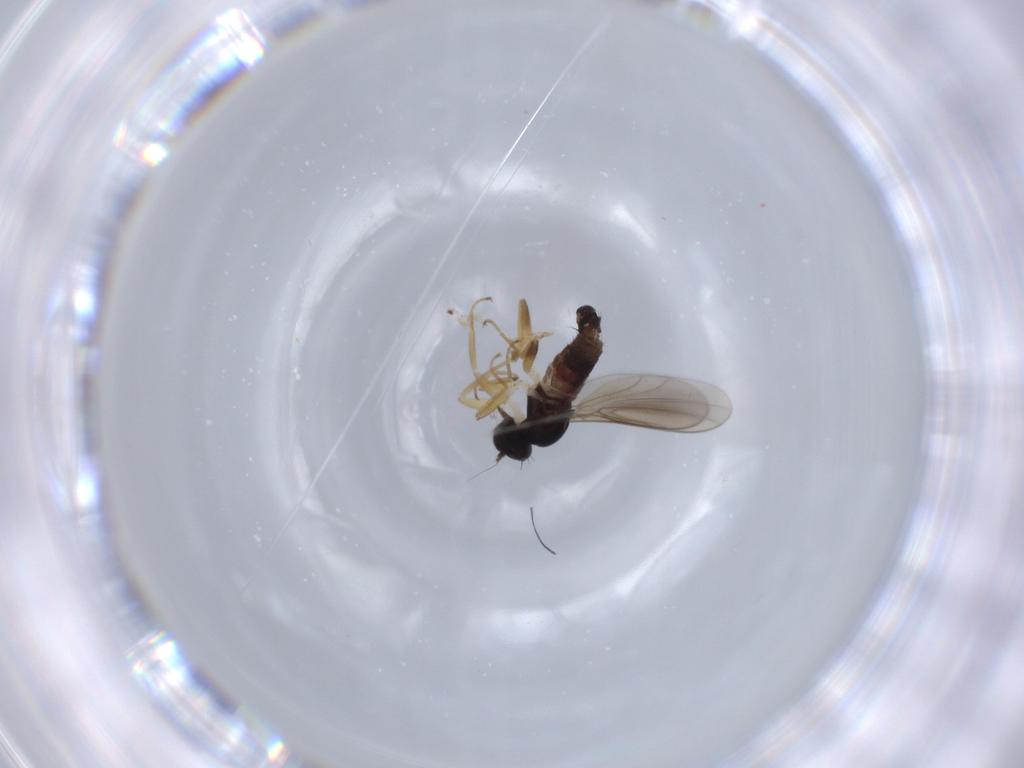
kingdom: Animalia
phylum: Arthropoda
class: Insecta
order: Diptera
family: Hybotidae
